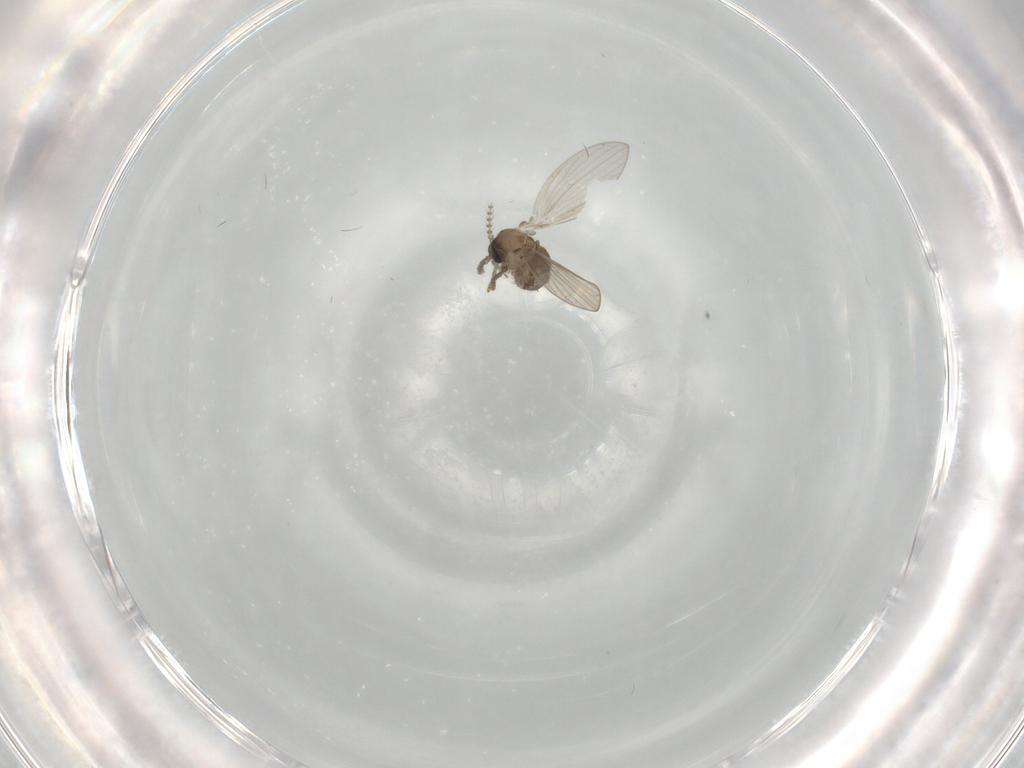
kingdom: Animalia
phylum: Arthropoda
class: Insecta
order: Diptera
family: Psychodidae
